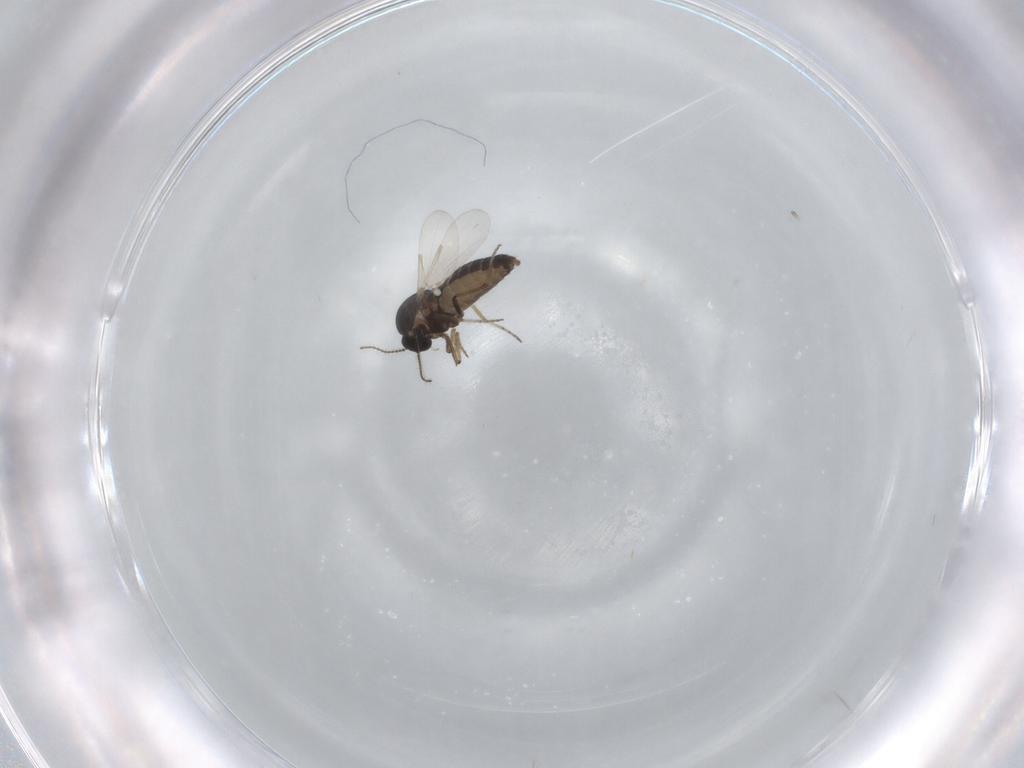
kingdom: Animalia
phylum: Arthropoda
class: Insecta
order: Diptera
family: Ceratopogonidae
